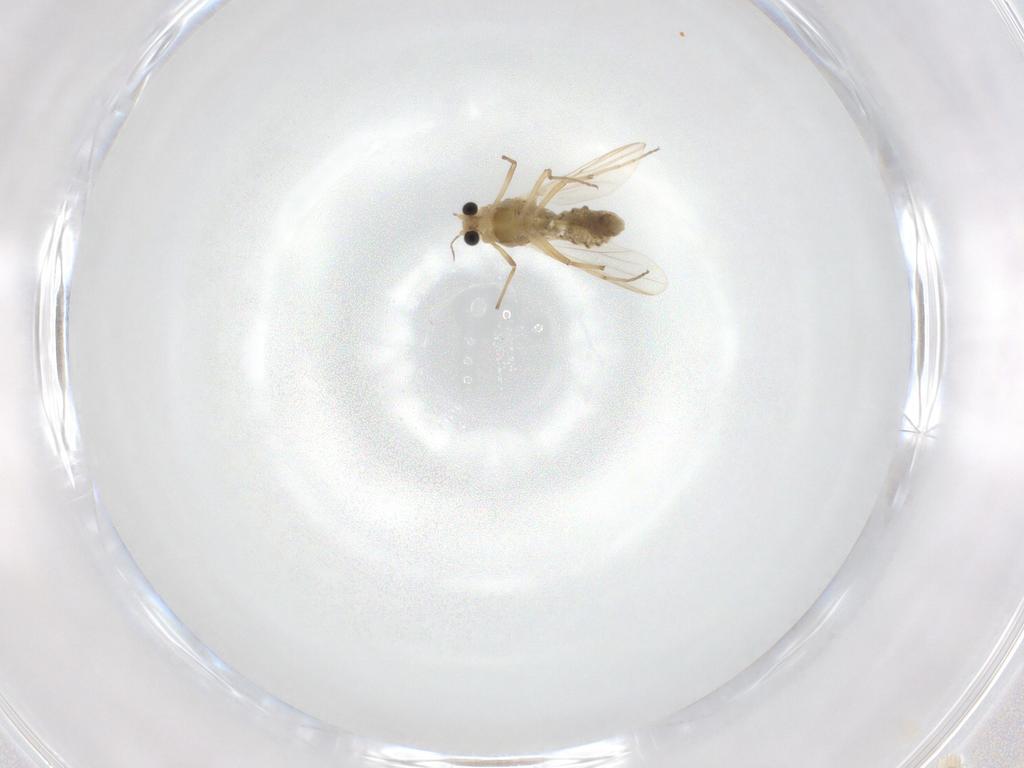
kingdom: Animalia
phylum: Arthropoda
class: Insecta
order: Diptera
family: Chironomidae
